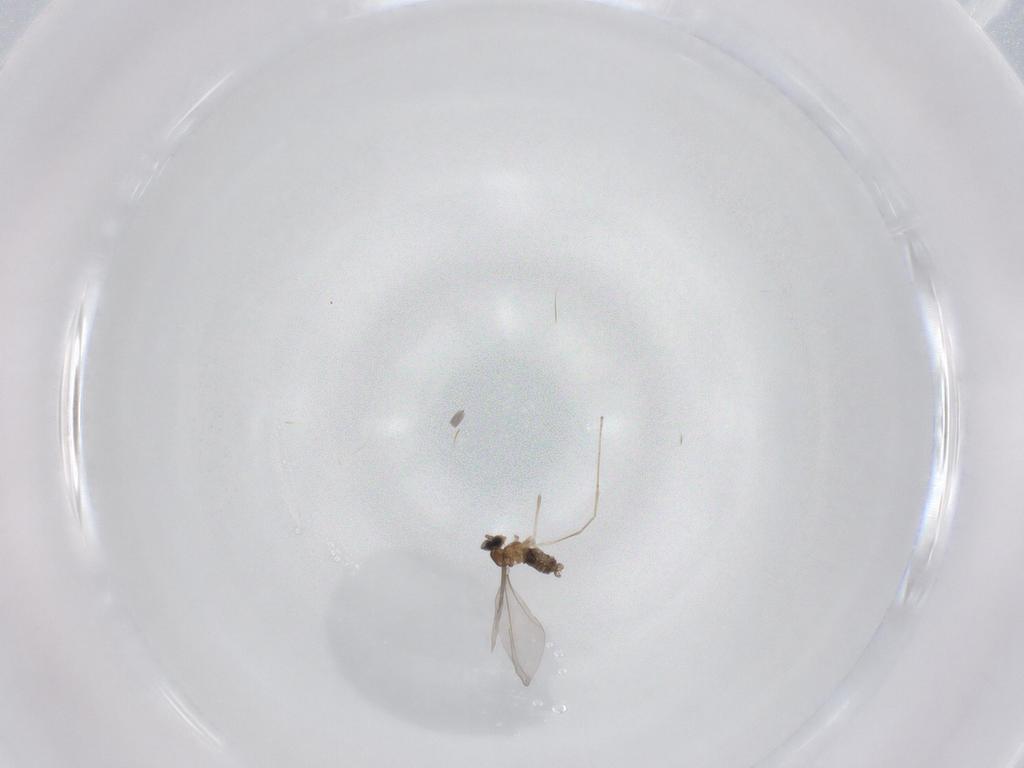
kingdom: Animalia
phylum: Arthropoda
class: Insecta
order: Diptera
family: Cecidomyiidae
